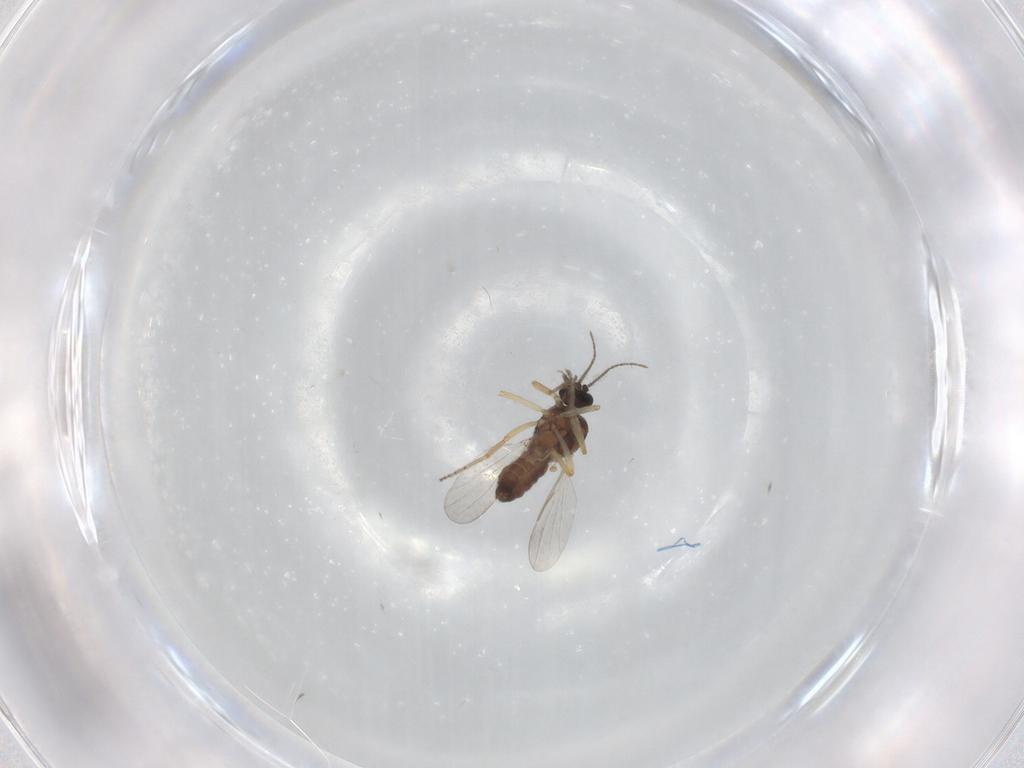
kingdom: Animalia
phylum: Arthropoda
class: Insecta
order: Diptera
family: Ceratopogonidae
